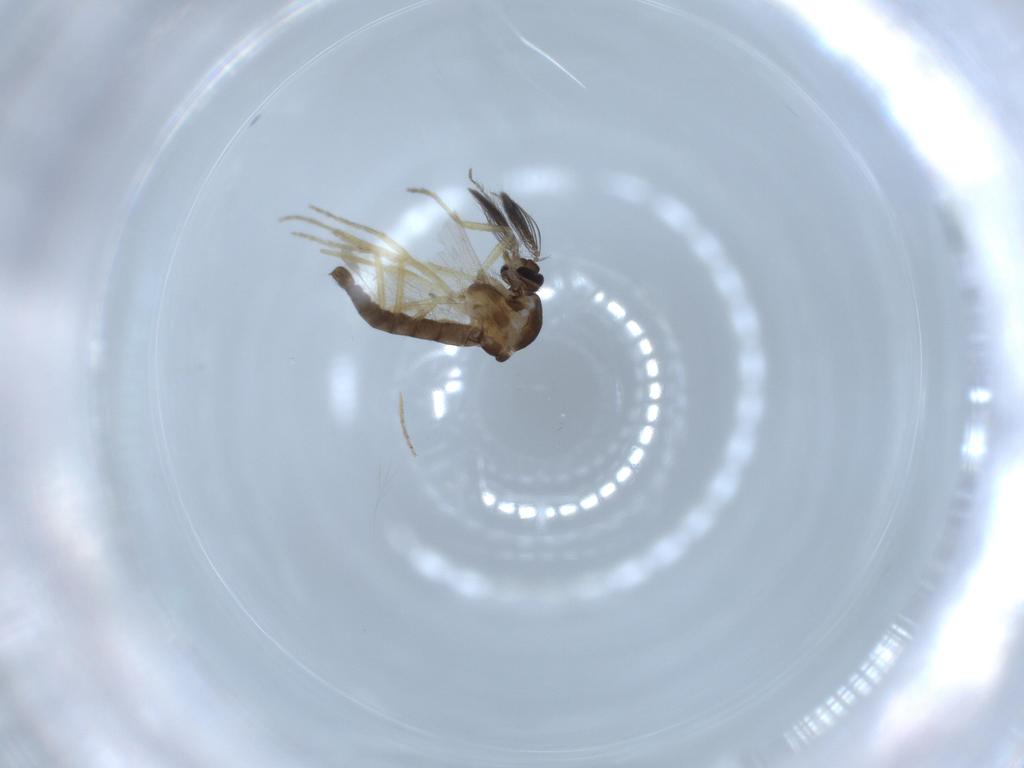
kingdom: Animalia
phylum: Arthropoda
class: Insecta
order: Diptera
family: Ceratopogonidae
